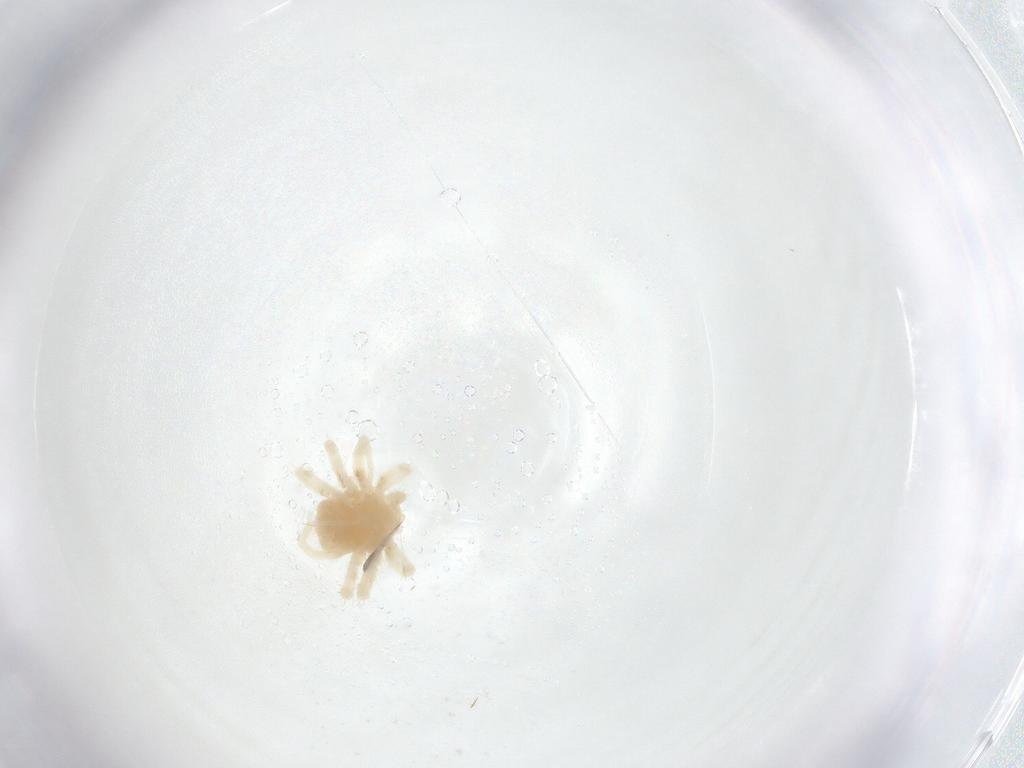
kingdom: Animalia
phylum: Arthropoda
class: Arachnida
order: Trombidiformes
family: Anystidae
